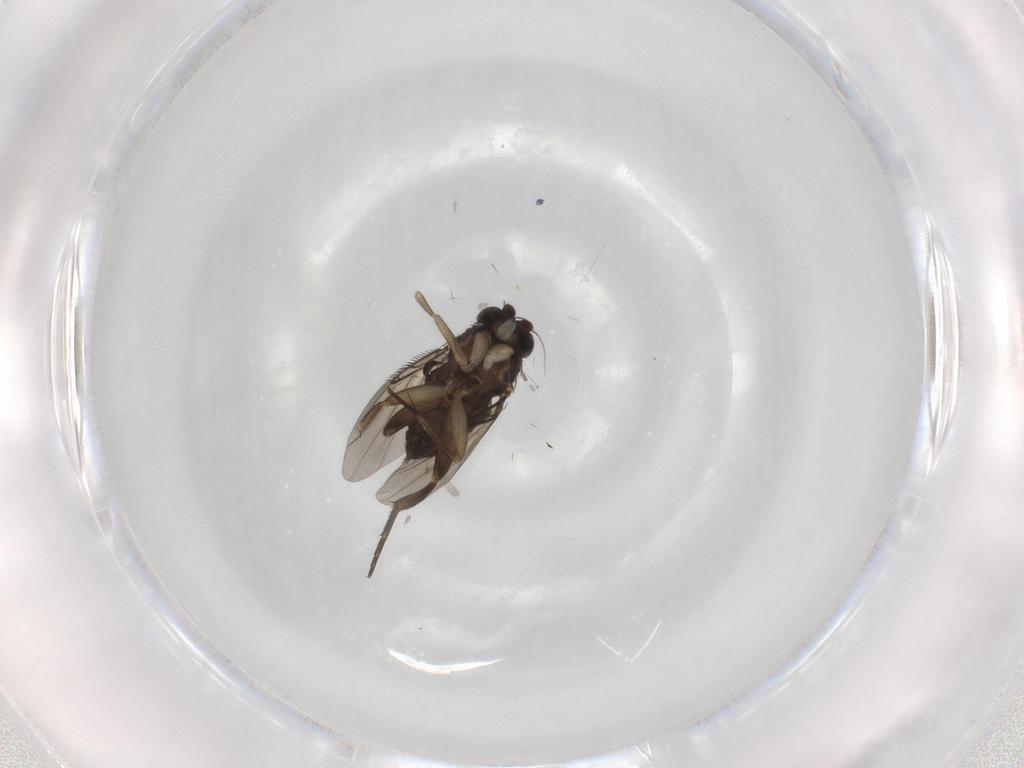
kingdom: Animalia
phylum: Arthropoda
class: Insecta
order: Diptera
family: Phoridae
